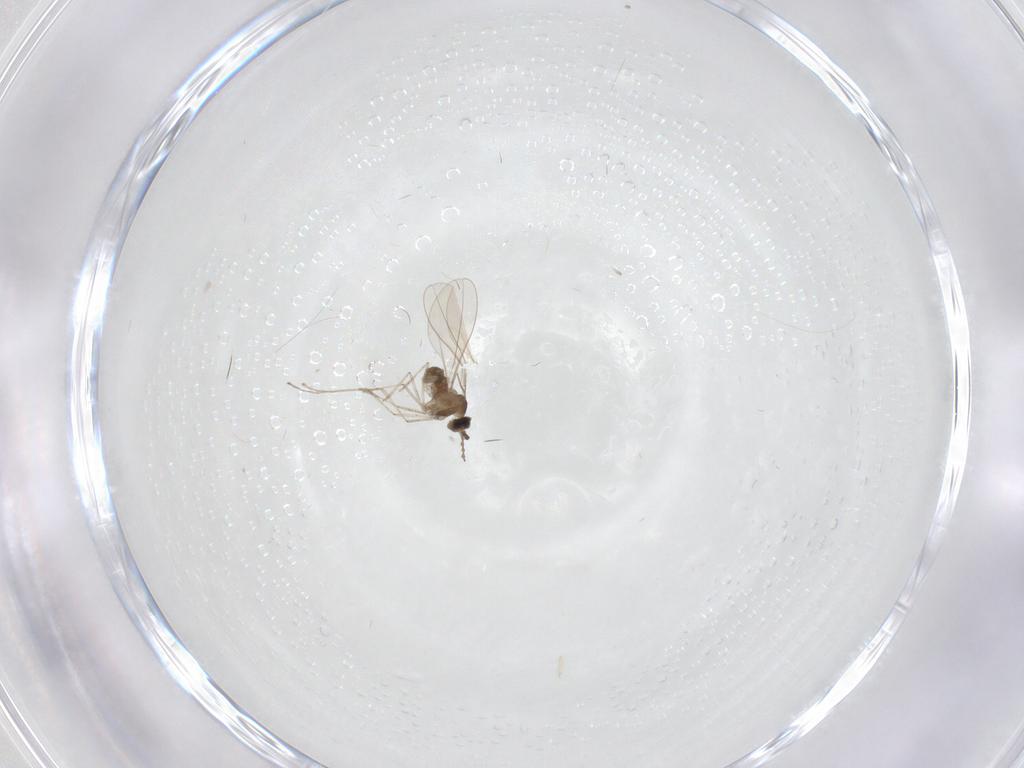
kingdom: Animalia
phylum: Arthropoda
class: Insecta
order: Diptera
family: Cecidomyiidae
